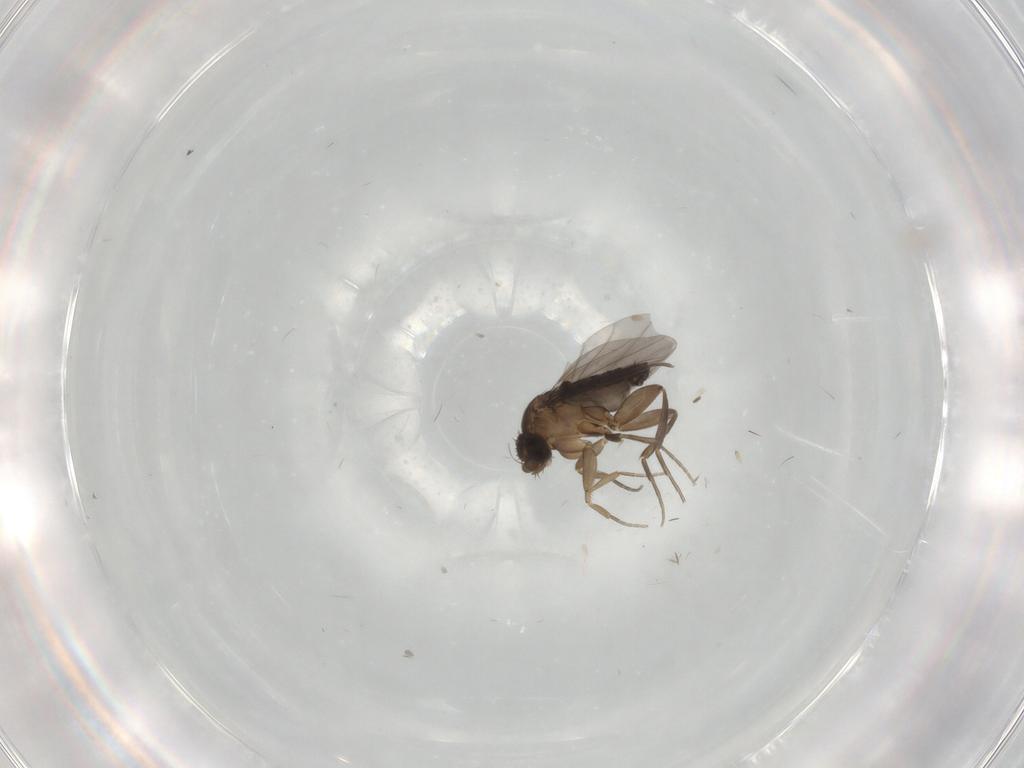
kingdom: Animalia
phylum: Arthropoda
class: Insecta
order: Diptera
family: Phoridae
